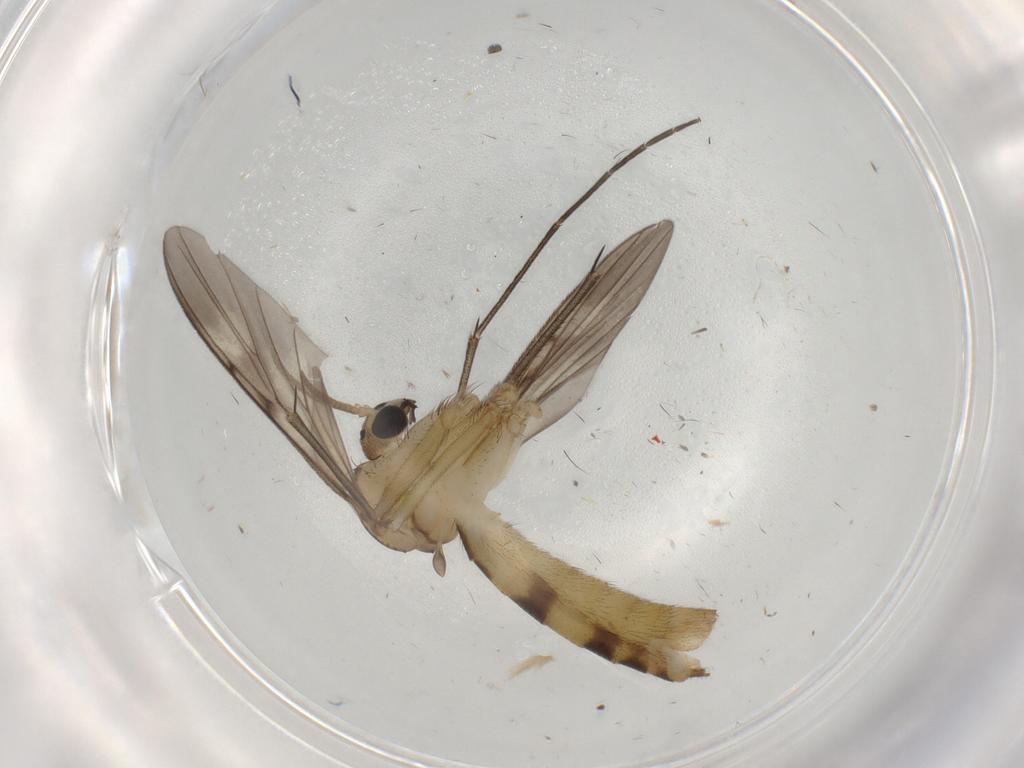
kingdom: Animalia
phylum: Arthropoda
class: Insecta
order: Diptera
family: Mycetophilidae
